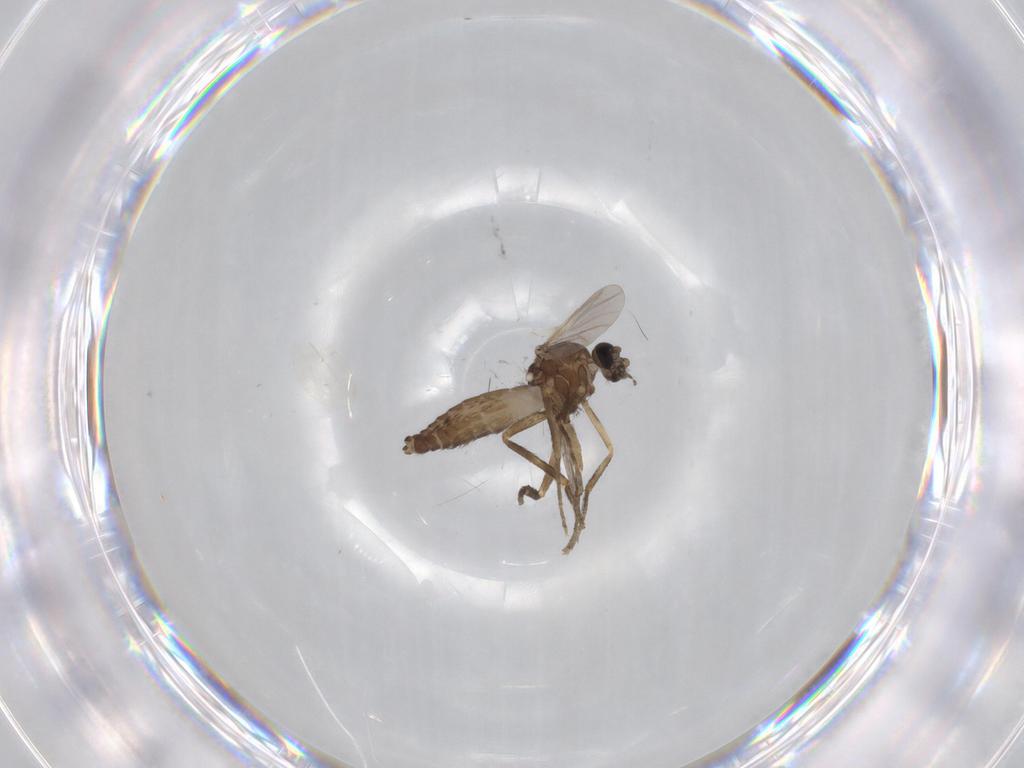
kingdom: Animalia
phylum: Arthropoda
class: Insecta
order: Diptera
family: Ceratopogonidae
